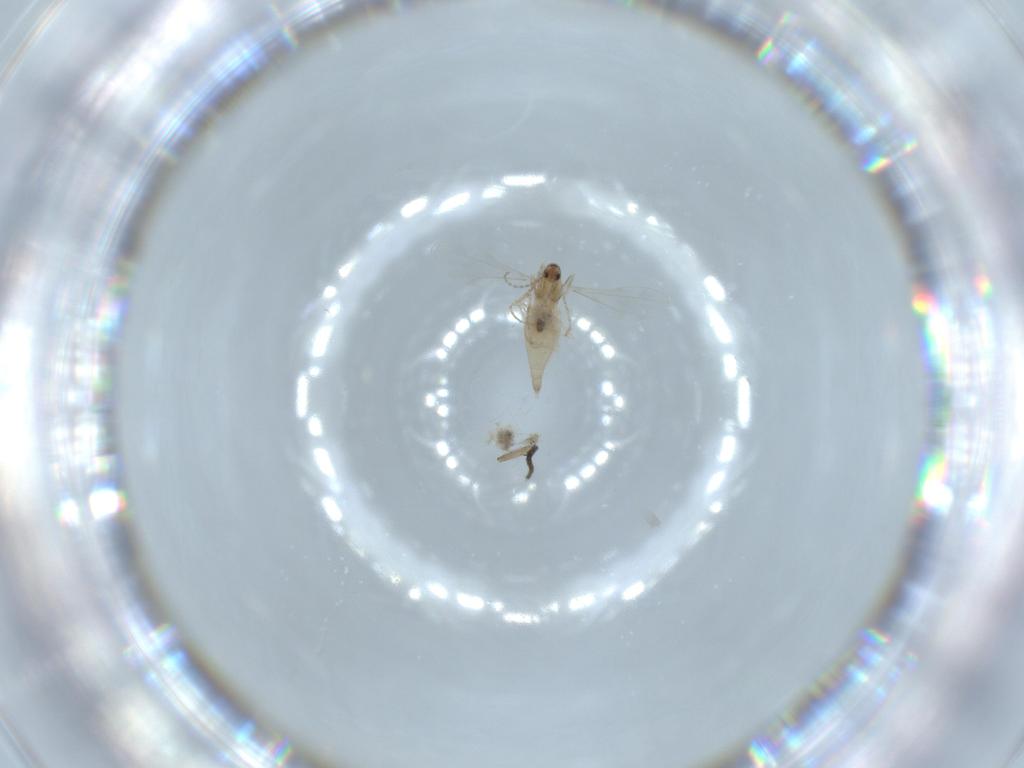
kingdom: Animalia
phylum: Arthropoda
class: Insecta
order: Diptera
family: Cecidomyiidae
